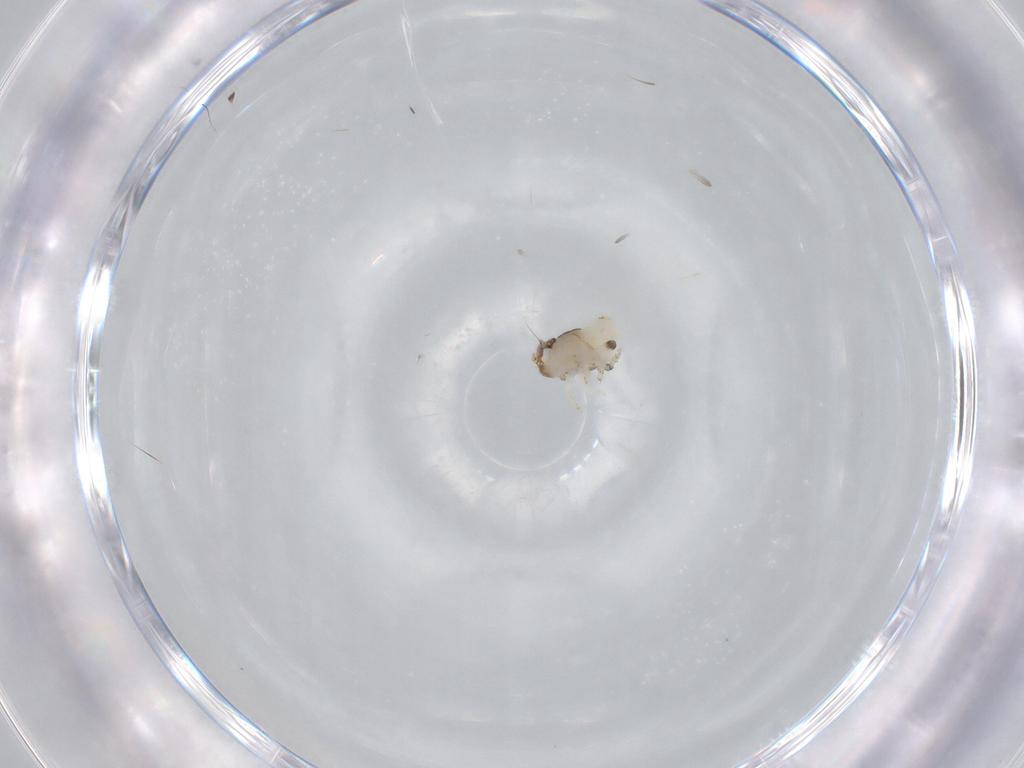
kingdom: Animalia
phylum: Arthropoda
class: Insecta
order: Hemiptera
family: Nogodinidae
